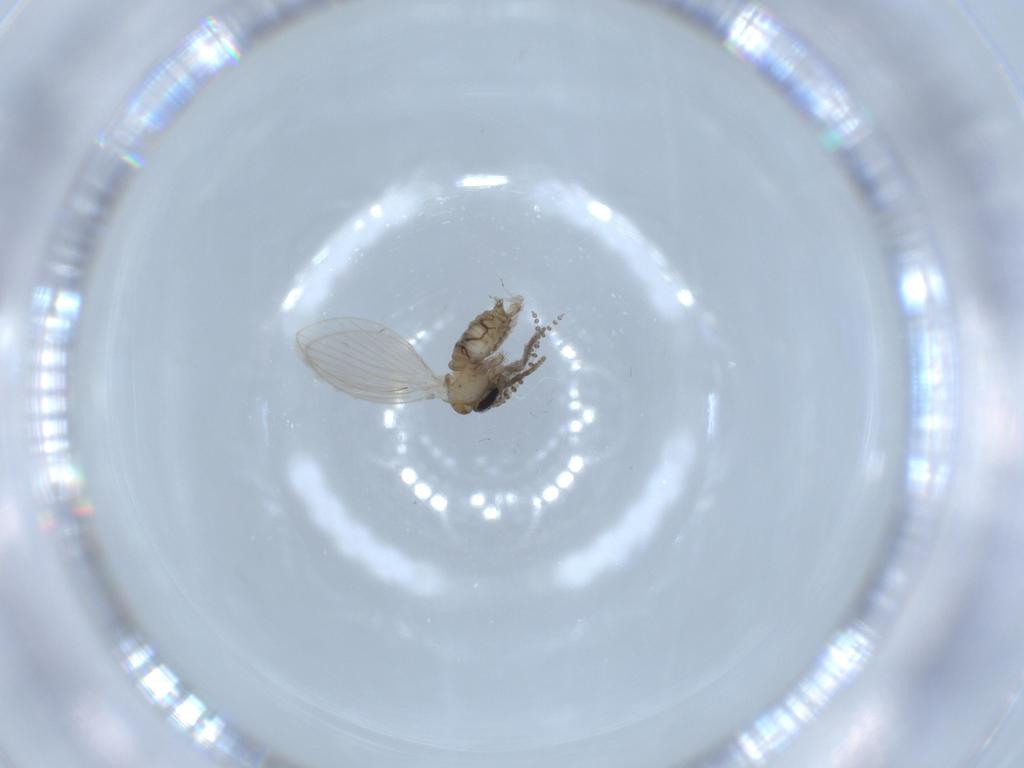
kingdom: Animalia
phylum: Arthropoda
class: Insecta
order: Diptera
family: Psychodidae
